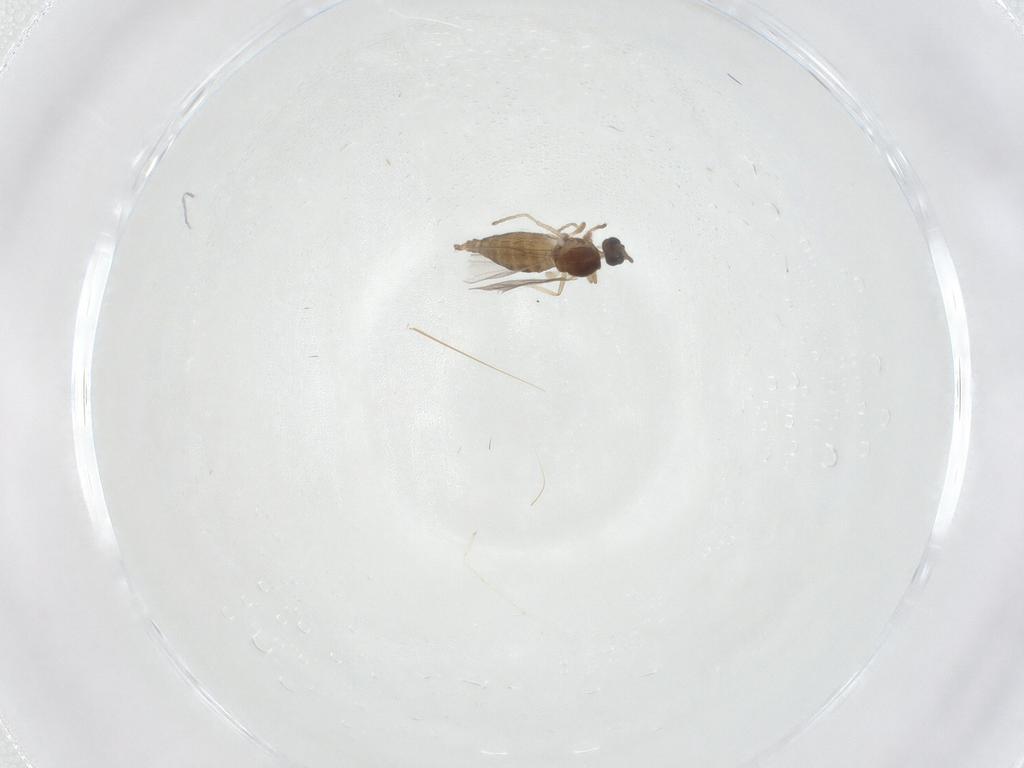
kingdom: Animalia
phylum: Arthropoda
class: Insecta
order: Diptera
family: Cecidomyiidae
